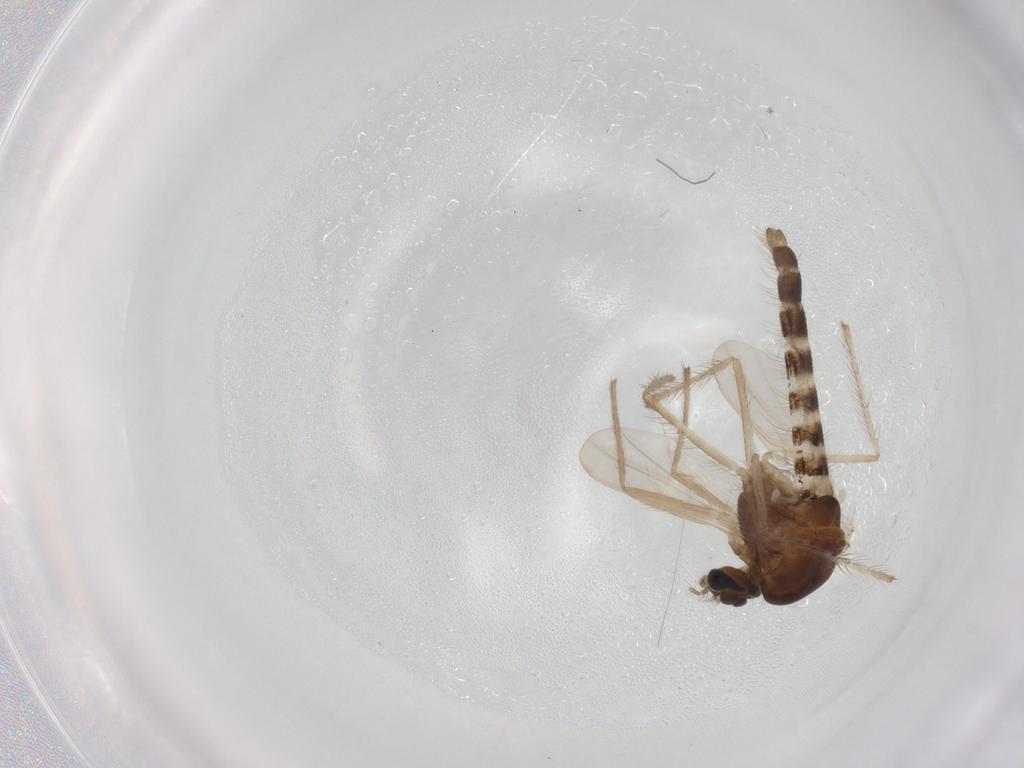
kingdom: Animalia
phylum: Arthropoda
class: Insecta
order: Diptera
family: Chironomidae
